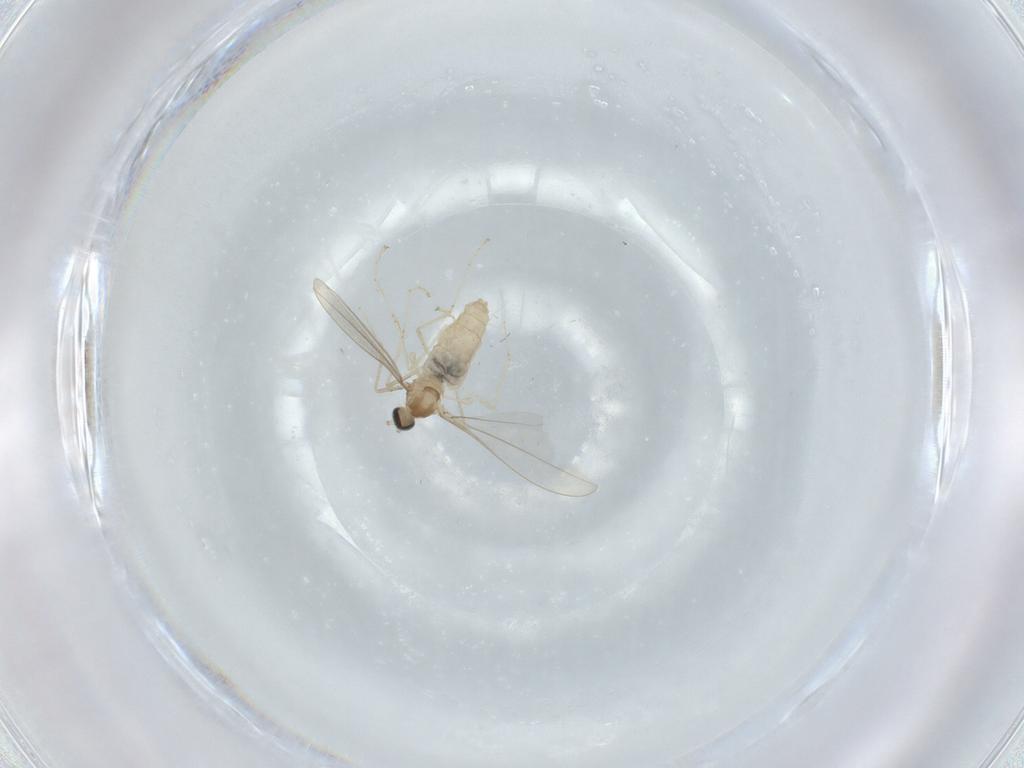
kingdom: Animalia
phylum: Arthropoda
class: Insecta
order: Diptera
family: Cecidomyiidae
